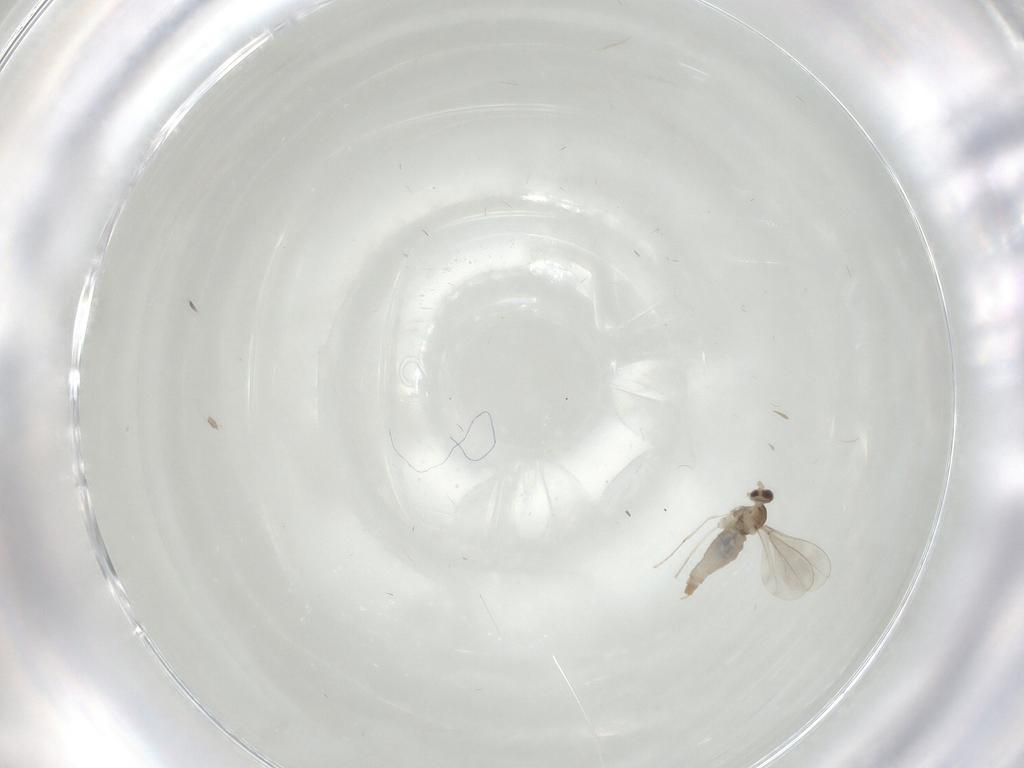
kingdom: Animalia
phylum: Arthropoda
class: Insecta
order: Diptera
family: Cecidomyiidae
